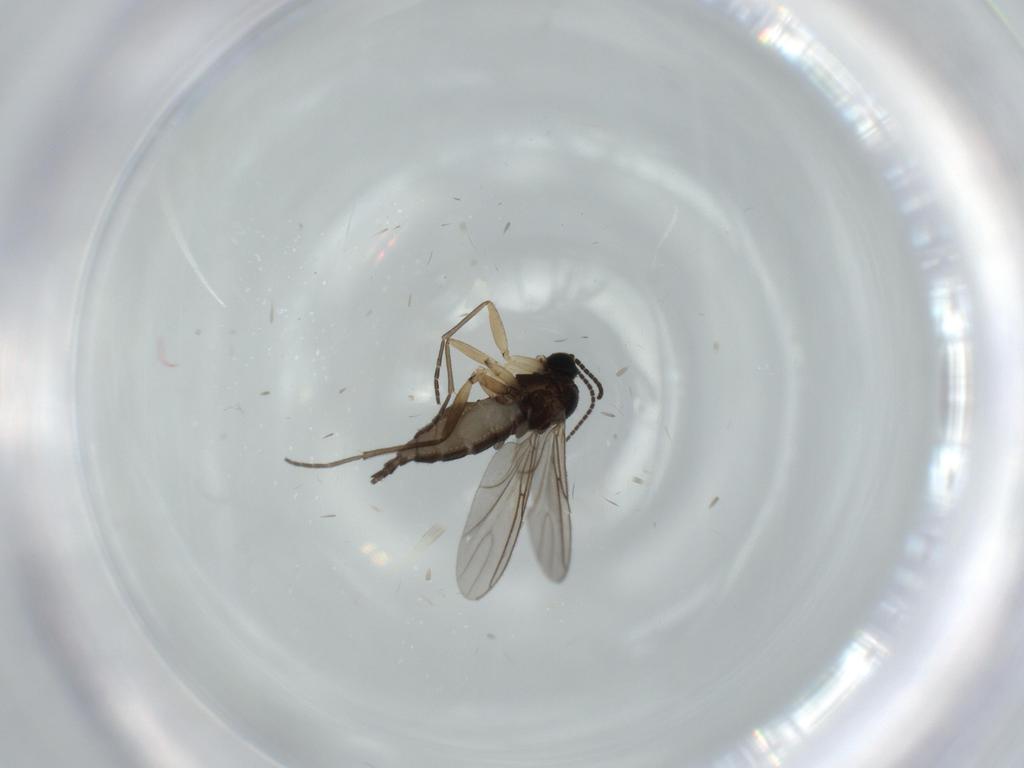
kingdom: Animalia
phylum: Arthropoda
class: Insecta
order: Diptera
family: Sciaridae
